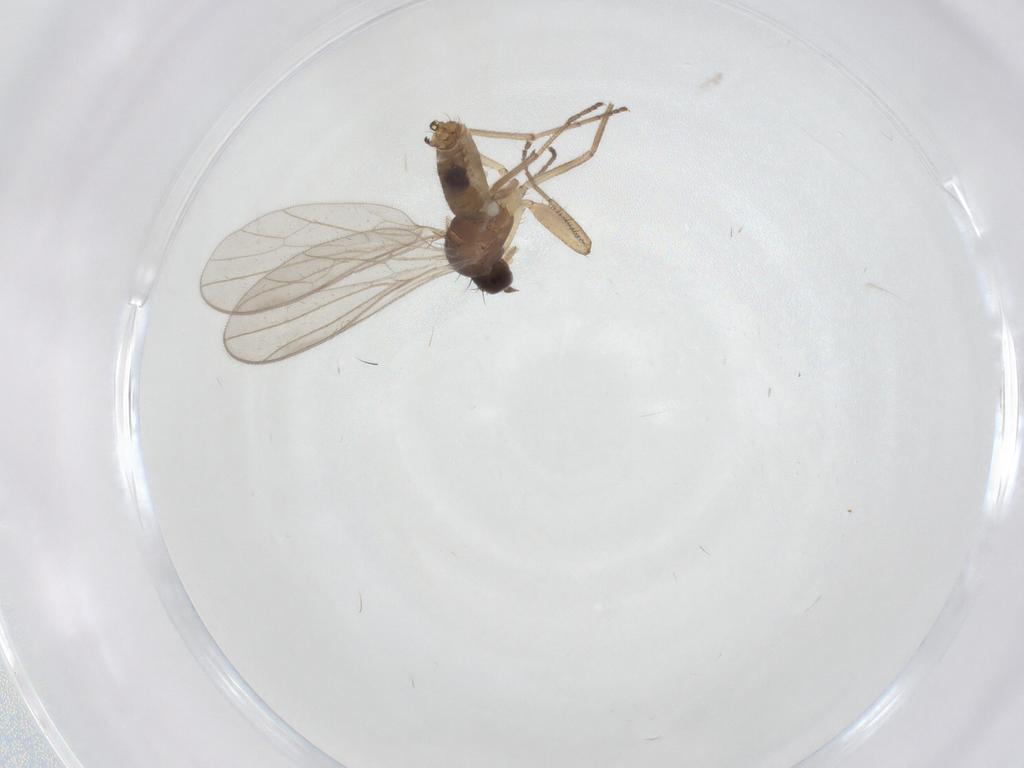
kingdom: Animalia
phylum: Arthropoda
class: Insecta
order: Diptera
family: Empididae
